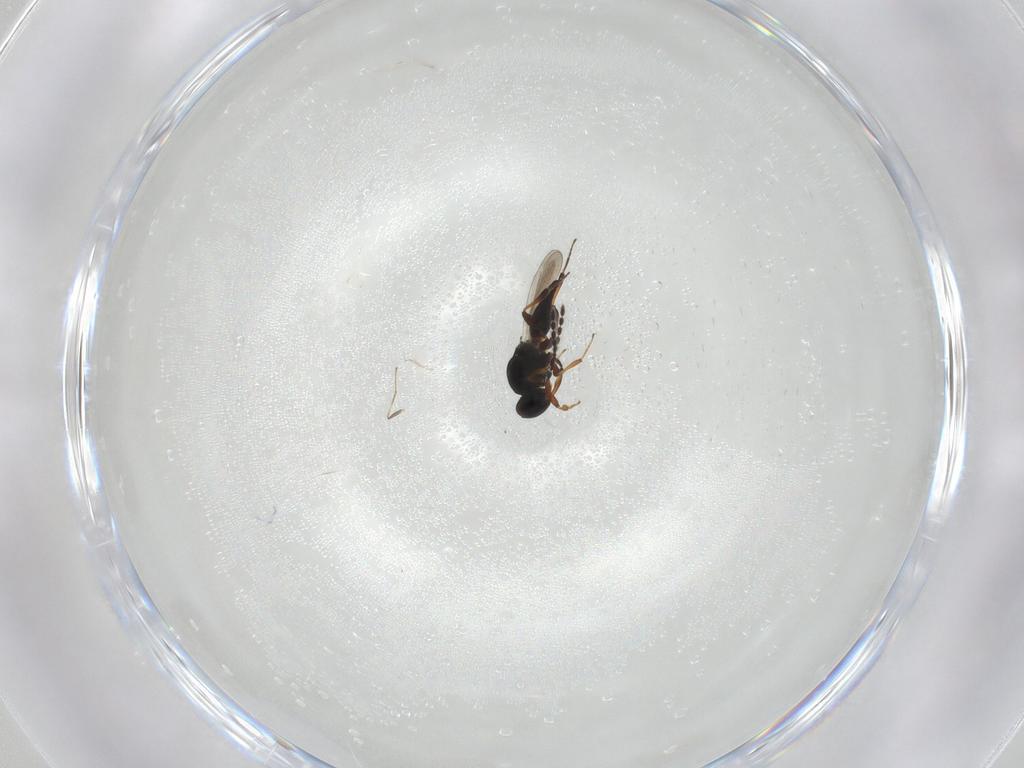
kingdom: Animalia
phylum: Arthropoda
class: Insecta
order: Hymenoptera
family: Platygastridae
